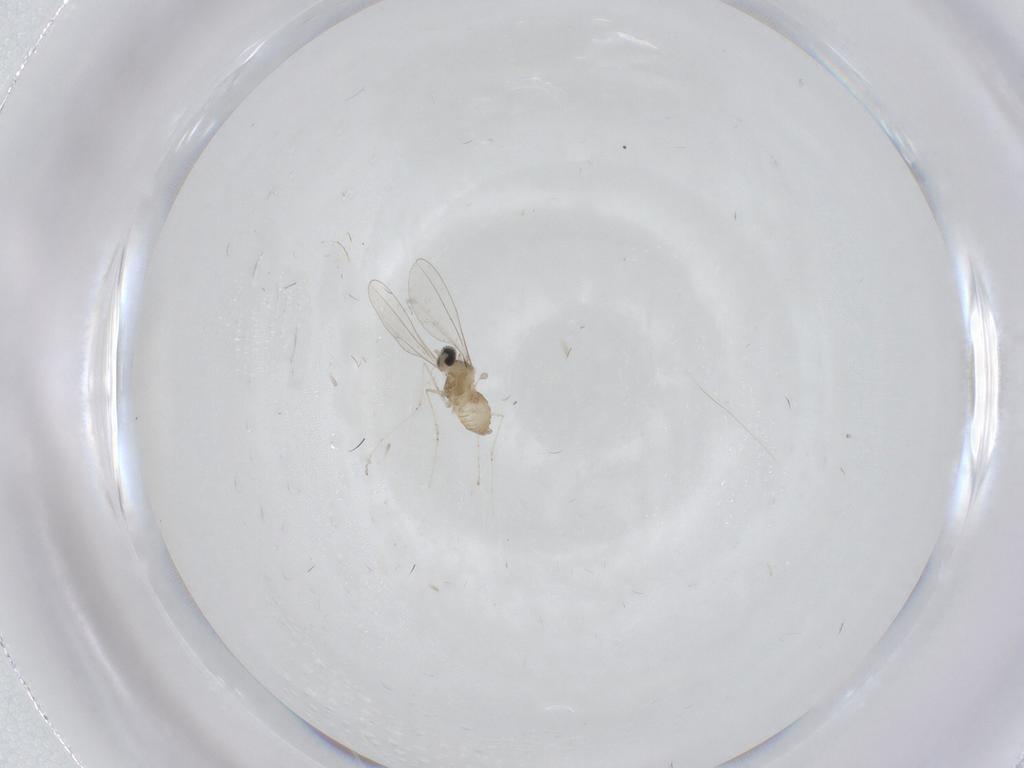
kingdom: Animalia
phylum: Arthropoda
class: Insecta
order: Diptera
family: Cecidomyiidae
